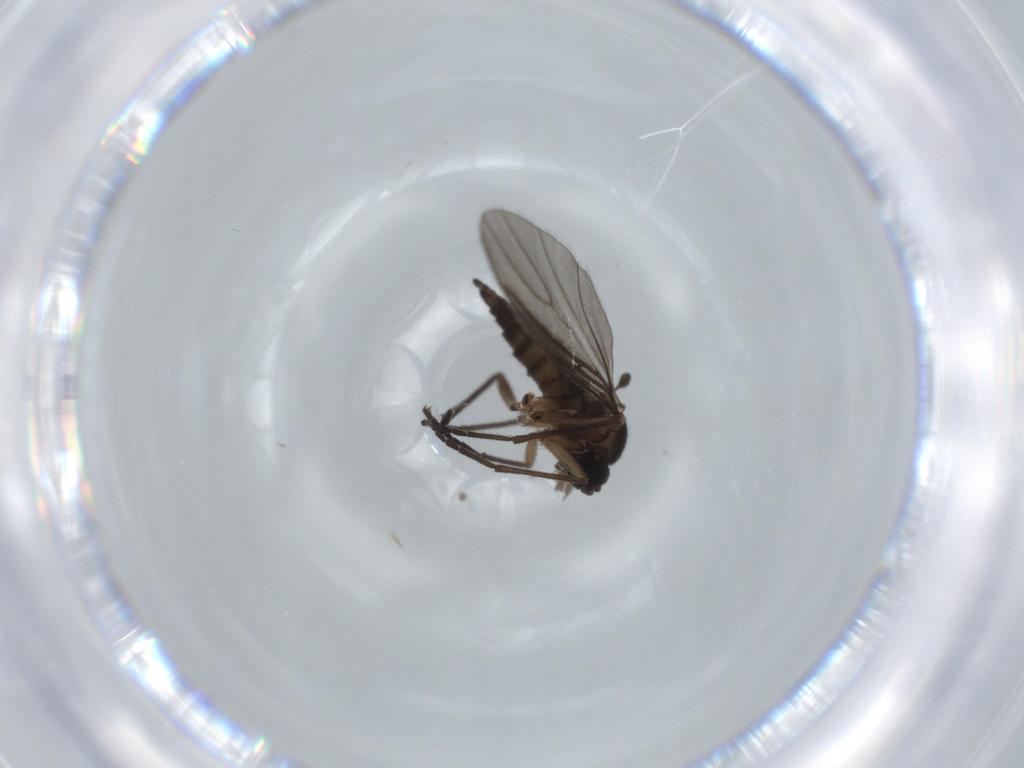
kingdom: Animalia
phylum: Arthropoda
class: Insecta
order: Diptera
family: Sciaridae
